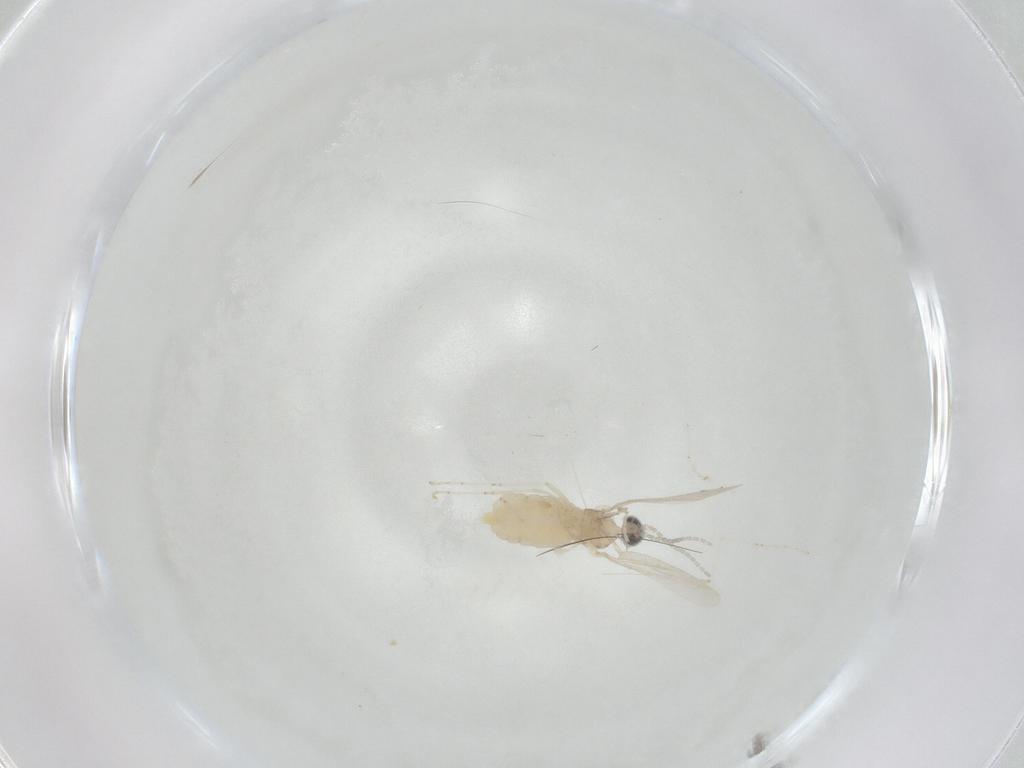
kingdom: Animalia
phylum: Arthropoda
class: Insecta
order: Diptera
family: Cecidomyiidae
